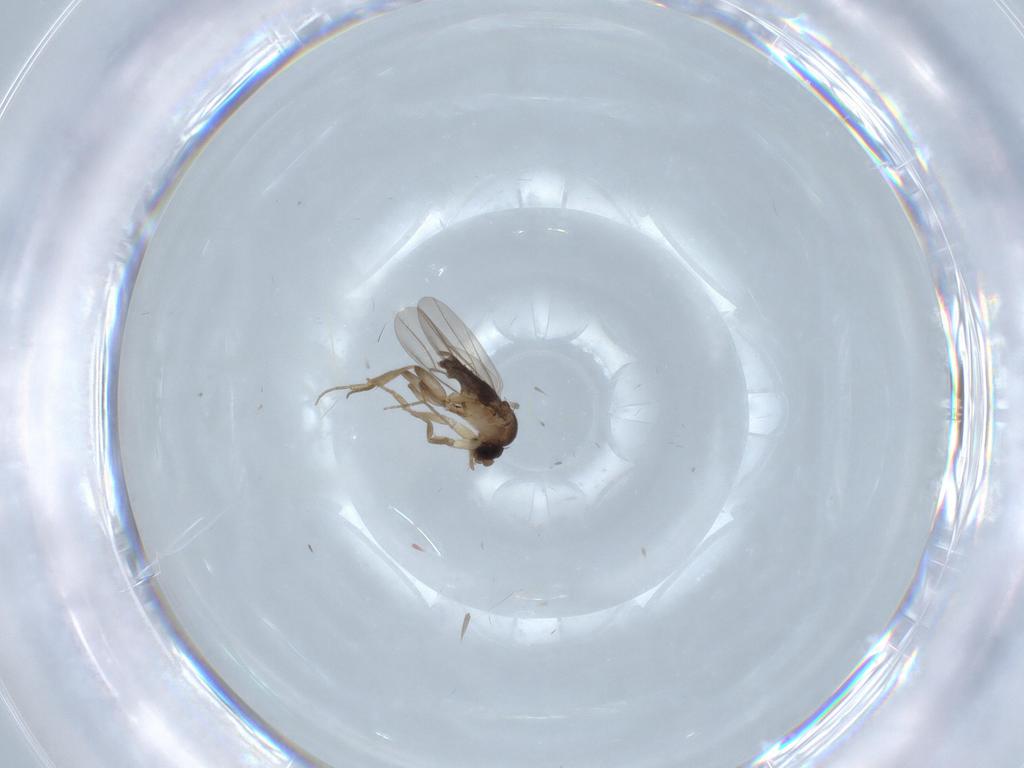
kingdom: Animalia
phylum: Arthropoda
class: Insecta
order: Diptera
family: Phoridae
